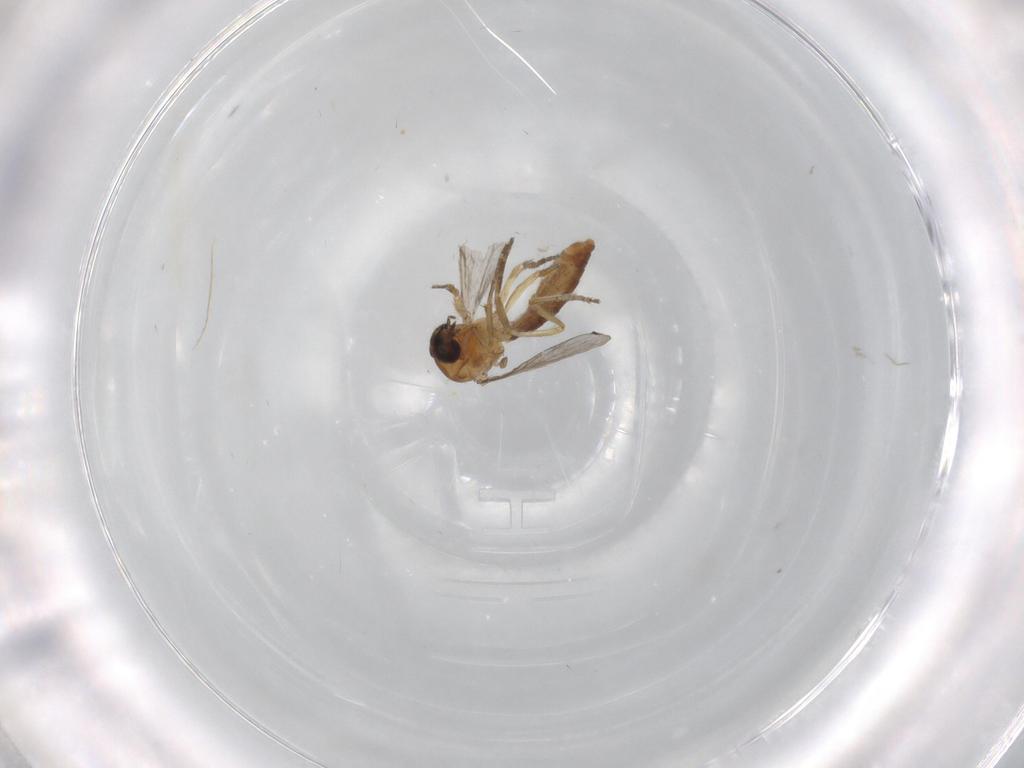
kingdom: Animalia
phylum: Arthropoda
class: Insecta
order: Diptera
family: Ceratopogonidae
